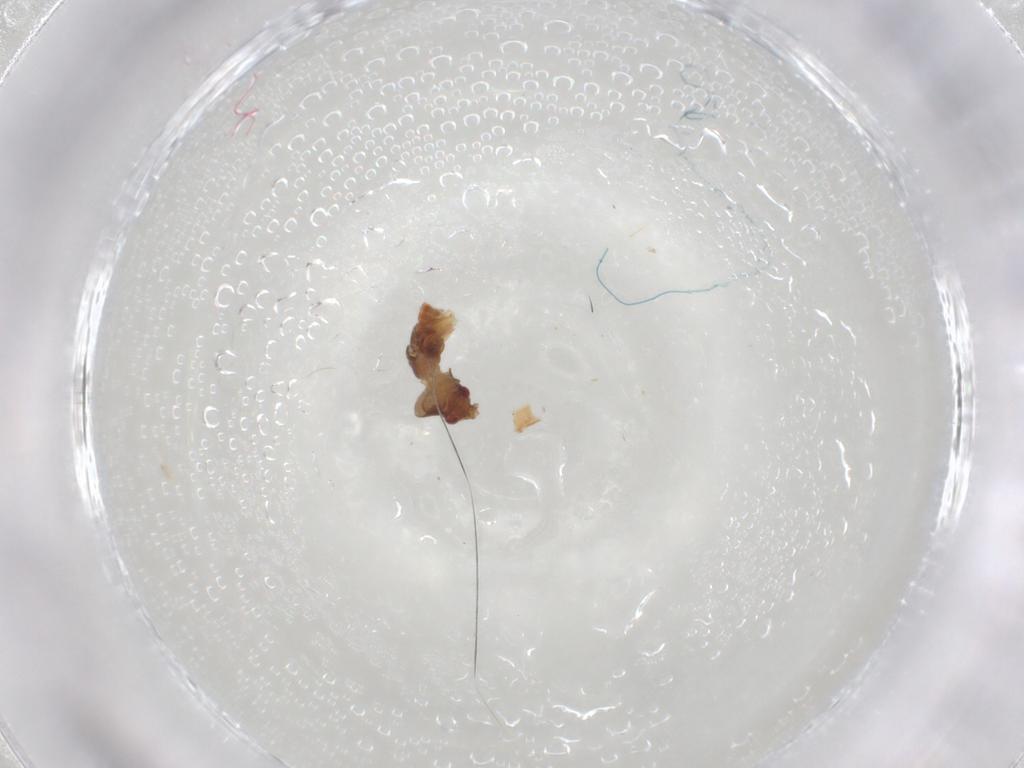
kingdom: Animalia
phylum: Arthropoda
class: Insecta
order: Hemiptera
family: Ceratocombidae
